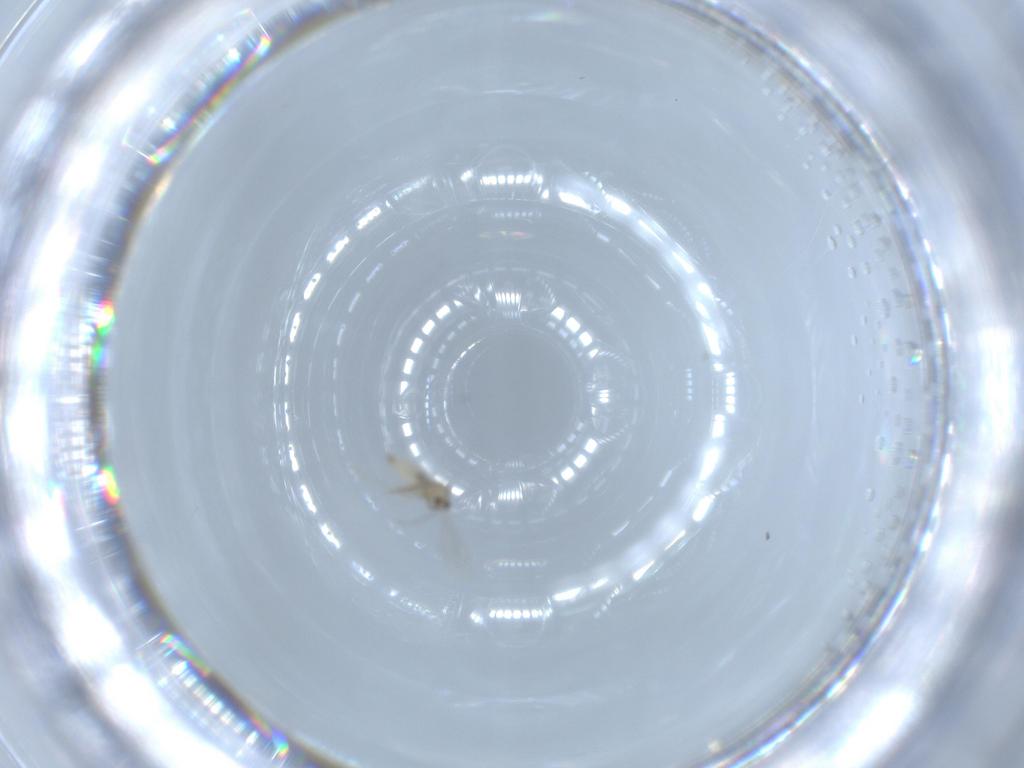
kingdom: Animalia
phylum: Arthropoda
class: Insecta
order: Diptera
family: Cecidomyiidae
